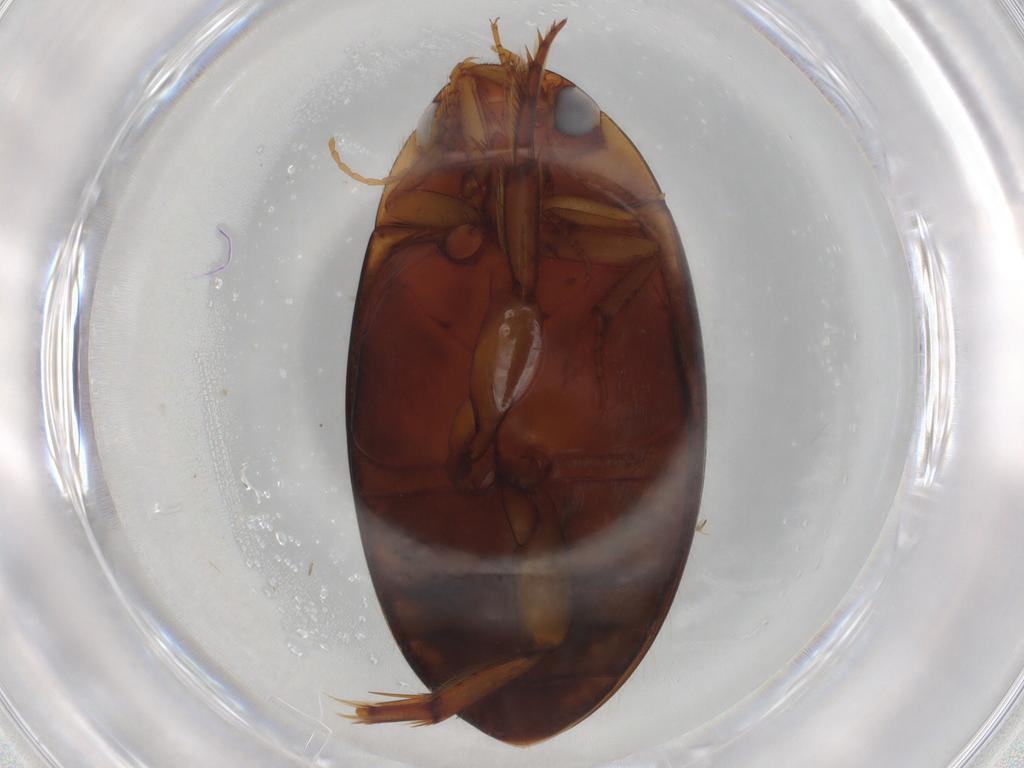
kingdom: Animalia
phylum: Arthropoda
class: Insecta
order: Coleoptera
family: Dytiscidae
